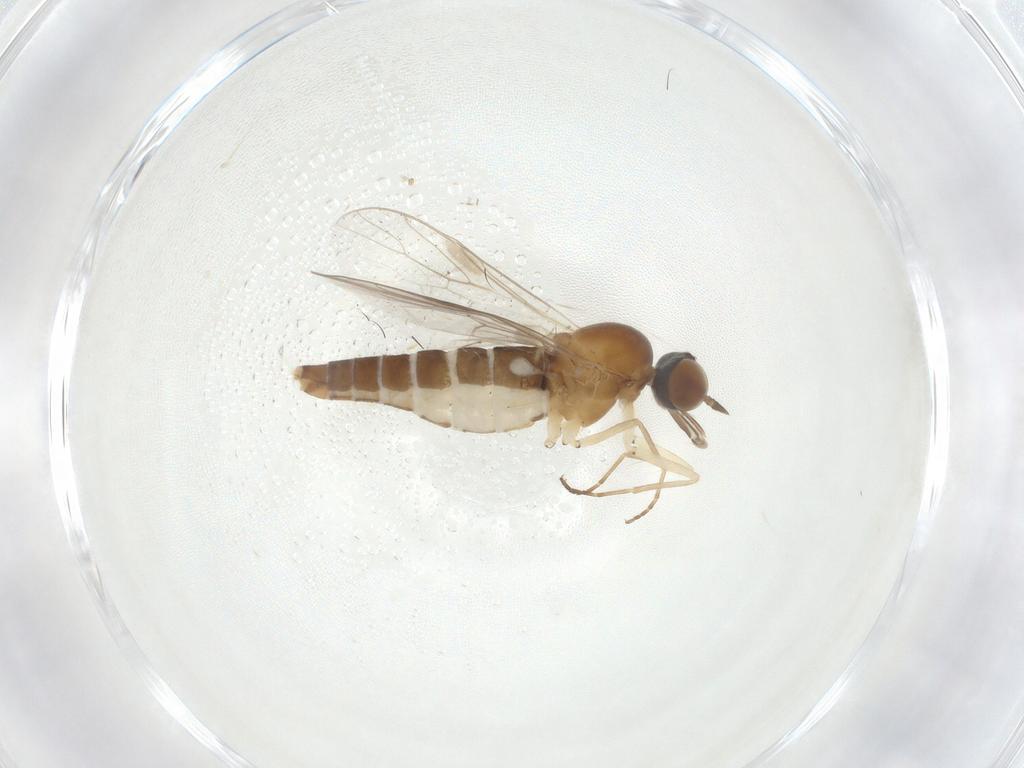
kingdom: Animalia
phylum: Arthropoda
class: Insecta
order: Diptera
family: Scenopinidae
